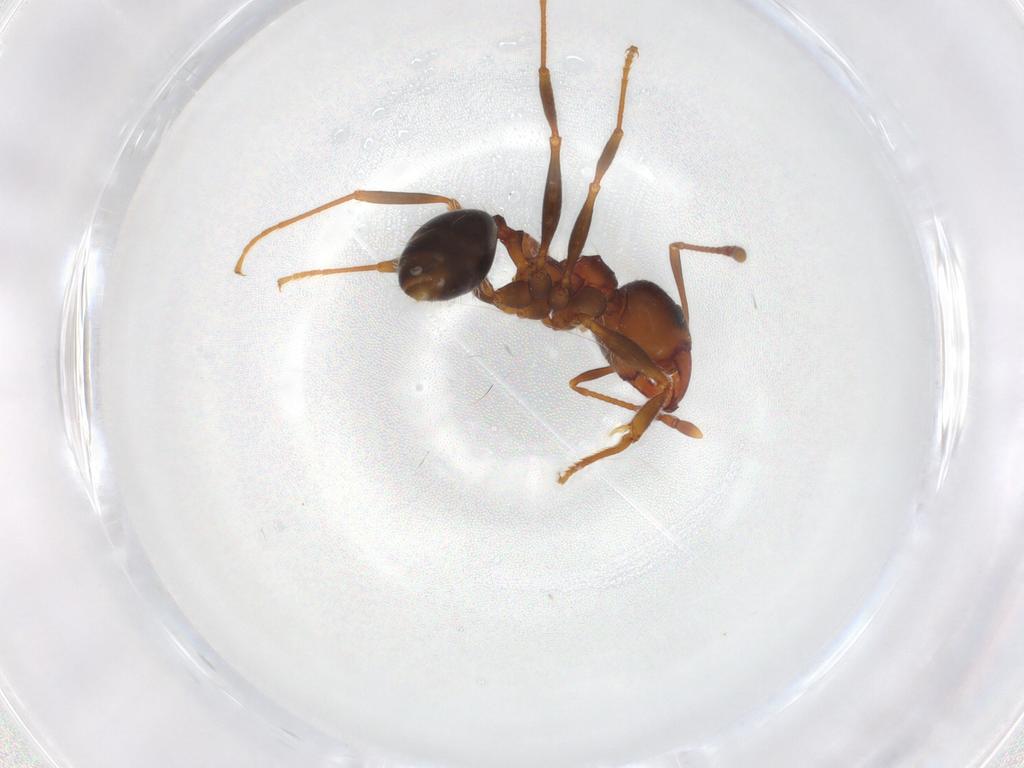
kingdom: Animalia
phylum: Arthropoda
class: Insecta
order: Hymenoptera
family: Eulophidae
